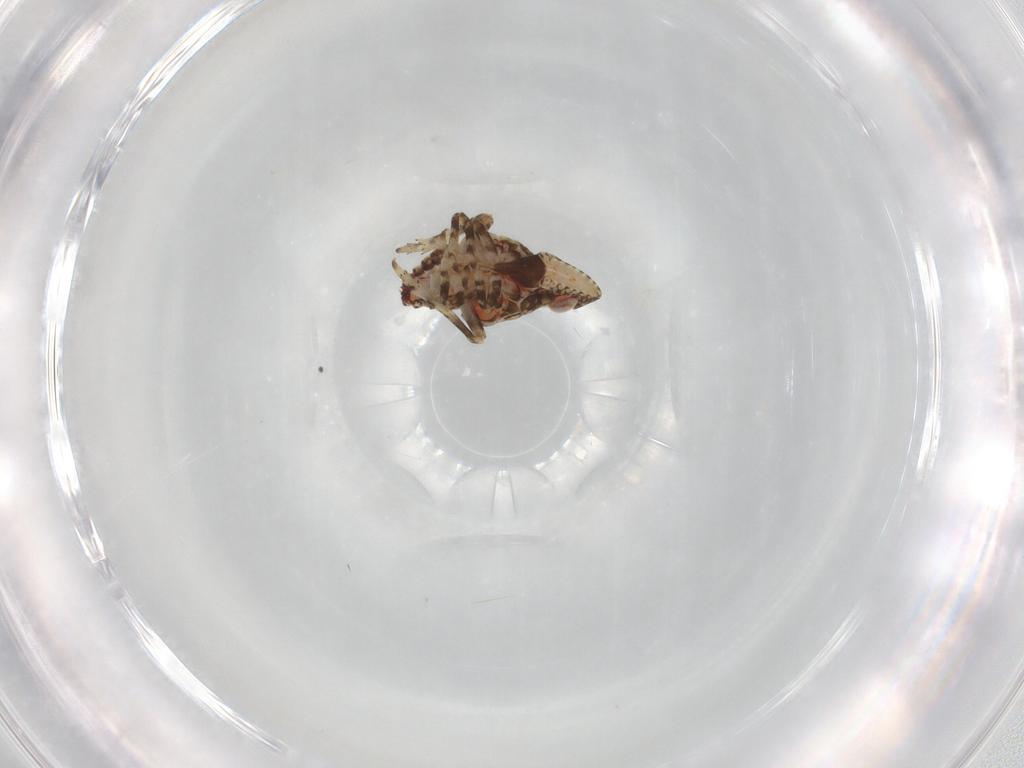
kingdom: Animalia
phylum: Arthropoda
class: Insecta
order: Hemiptera
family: Tropiduchidae
